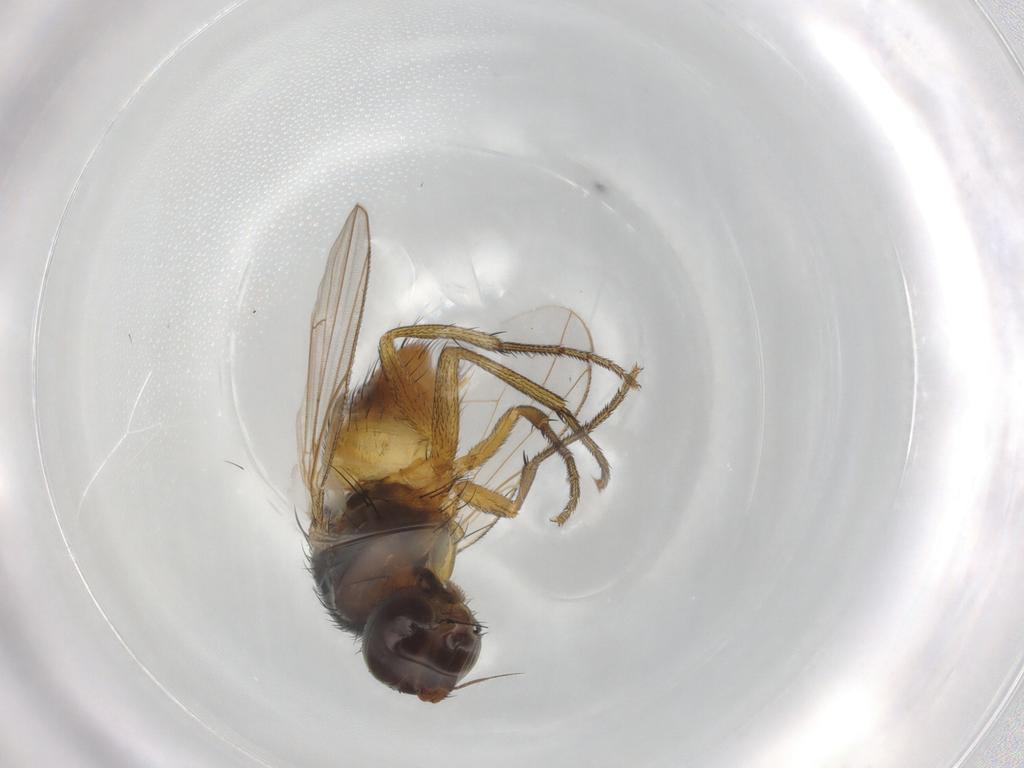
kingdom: Animalia
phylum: Arthropoda
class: Insecta
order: Diptera
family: Muscidae
